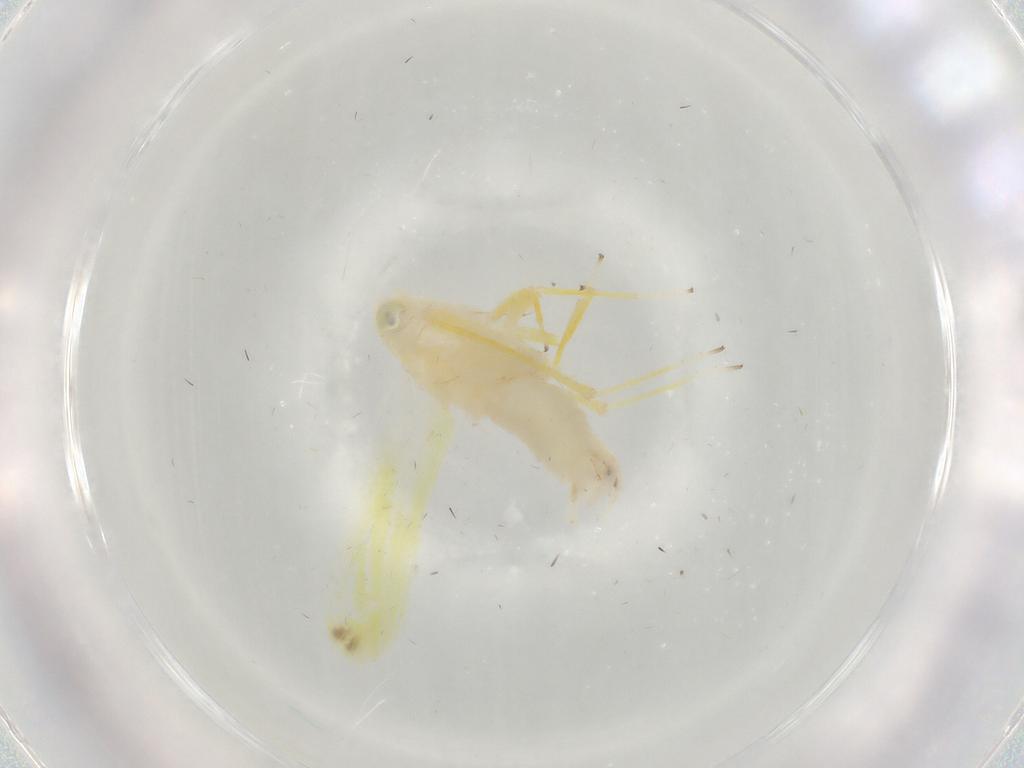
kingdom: Animalia
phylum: Arthropoda
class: Insecta
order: Hemiptera
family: Cicadellidae
